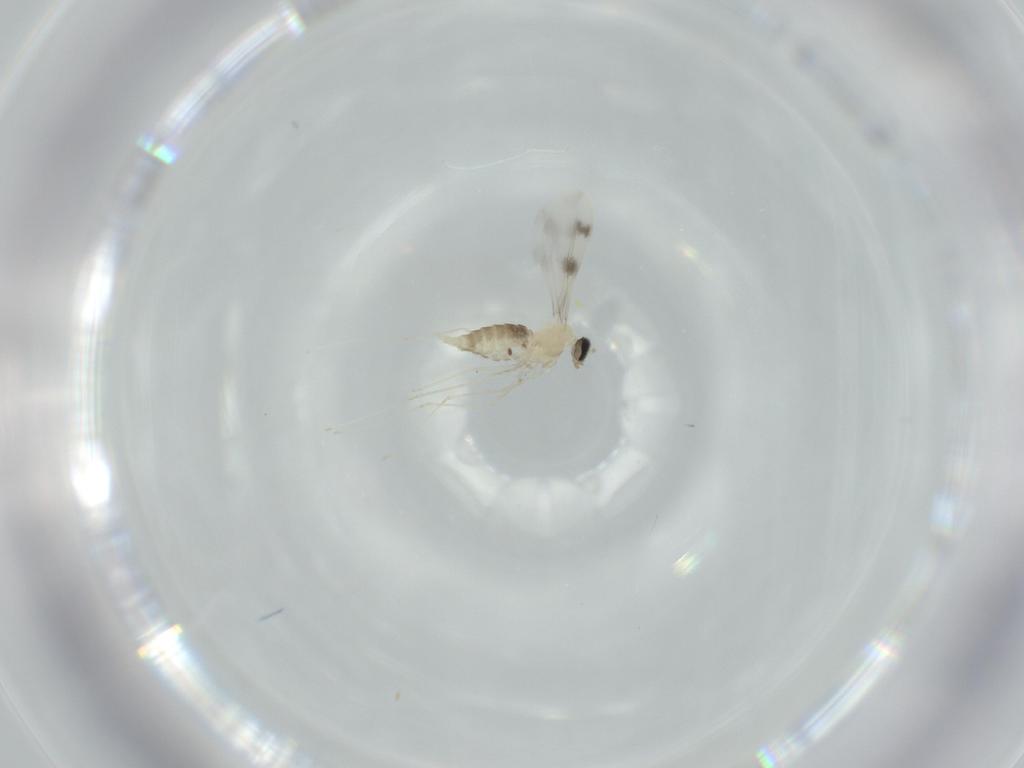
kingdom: Animalia
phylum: Arthropoda
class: Insecta
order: Diptera
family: Cecidomyiidae
